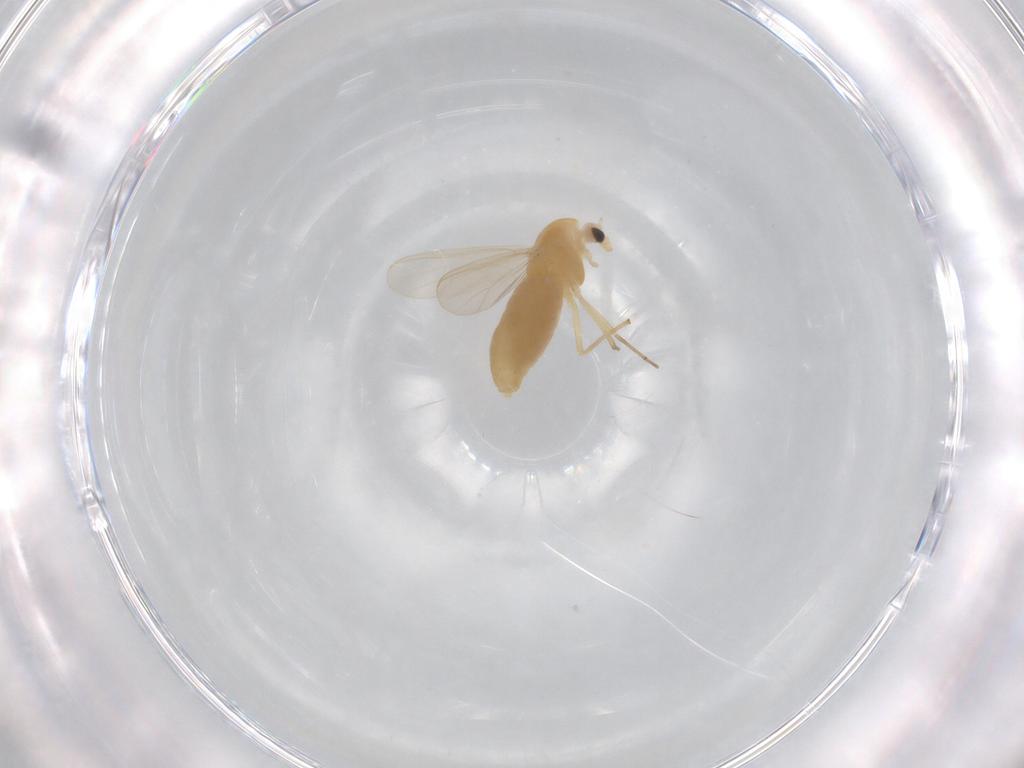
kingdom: Animalia
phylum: Arthropoda
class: Insecta
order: Diptera
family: Chironomidae
